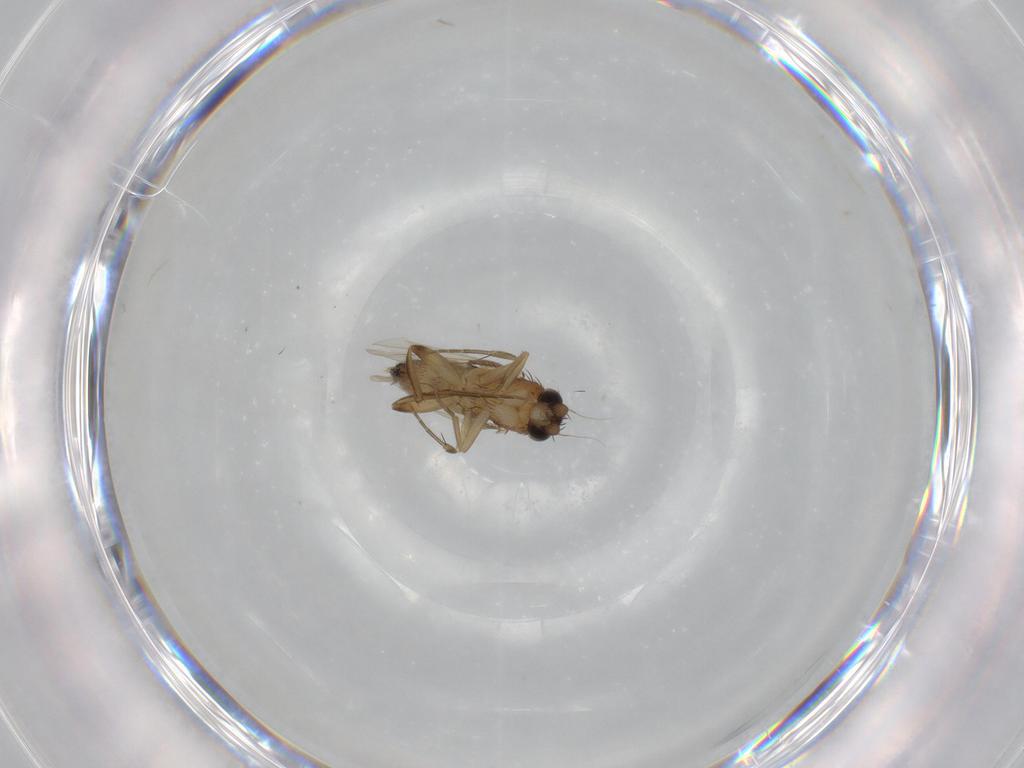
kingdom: Animalia
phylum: Arthropoda
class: Insecta
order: Diptera
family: Phoridae
